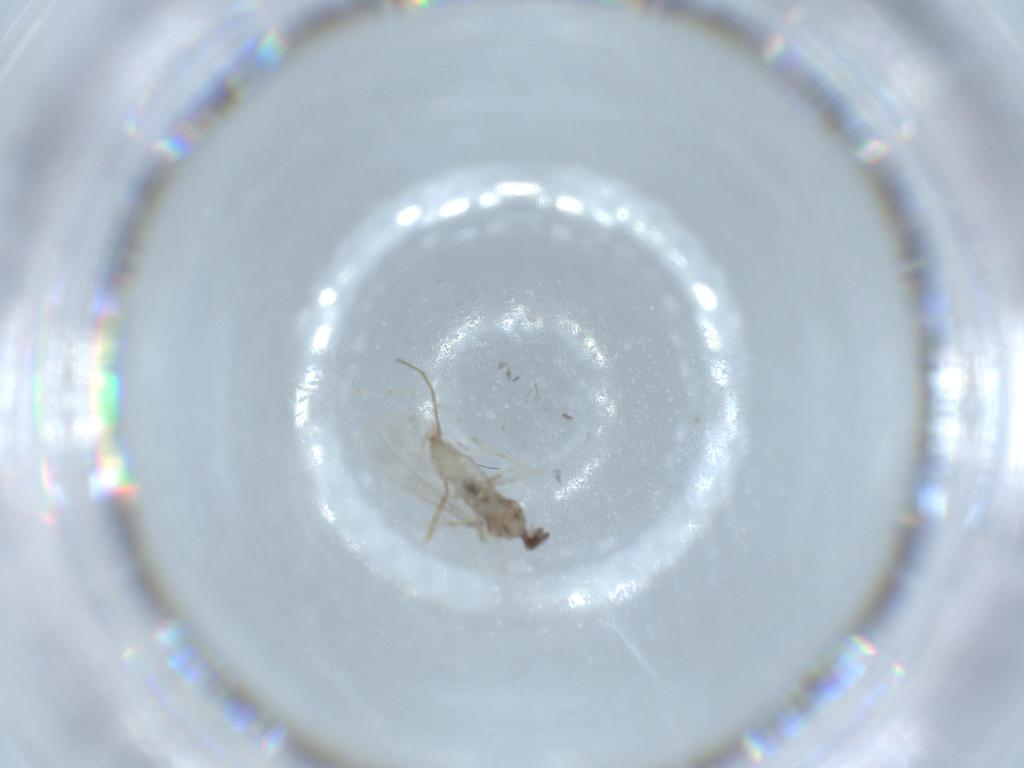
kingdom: Animalia
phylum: Arthropoda
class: Insecta
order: Diptera
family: Cecidomyiidae
